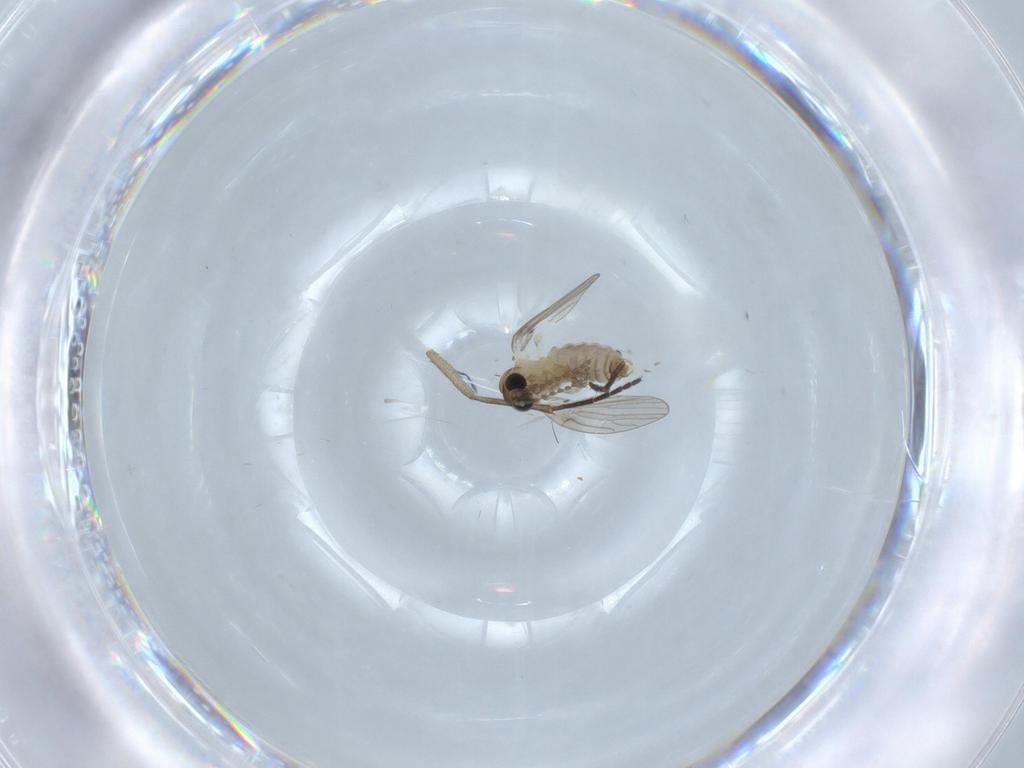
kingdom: Animalia
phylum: Arthropoda
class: Insecta
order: Diptera
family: Psychodidae
